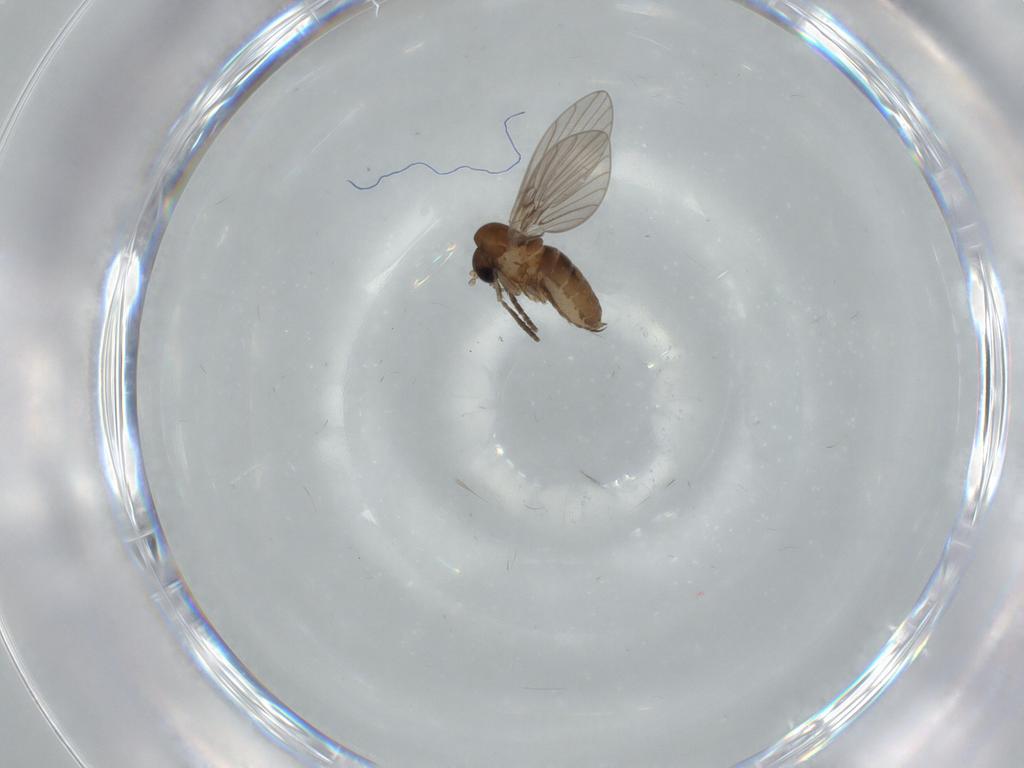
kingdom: Animalia
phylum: Arthropoda
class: Insecta
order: Diptera
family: Psychodidae
